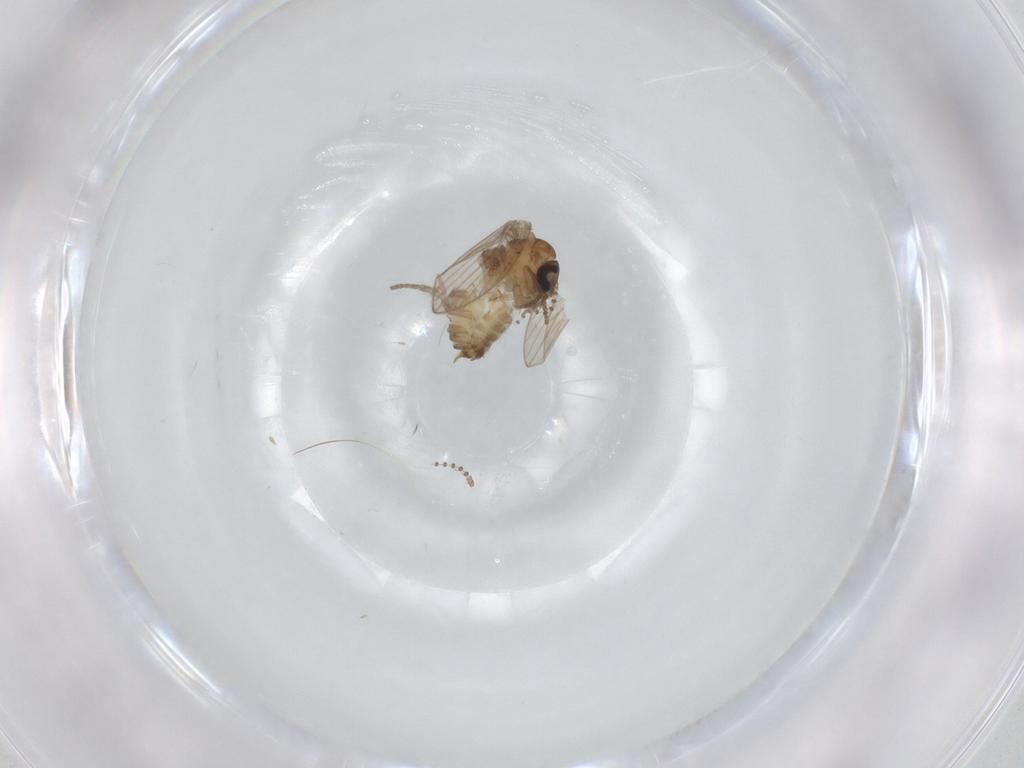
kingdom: Animalia
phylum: Arthropoda
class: Insecta
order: Diptera
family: Psychodidae
